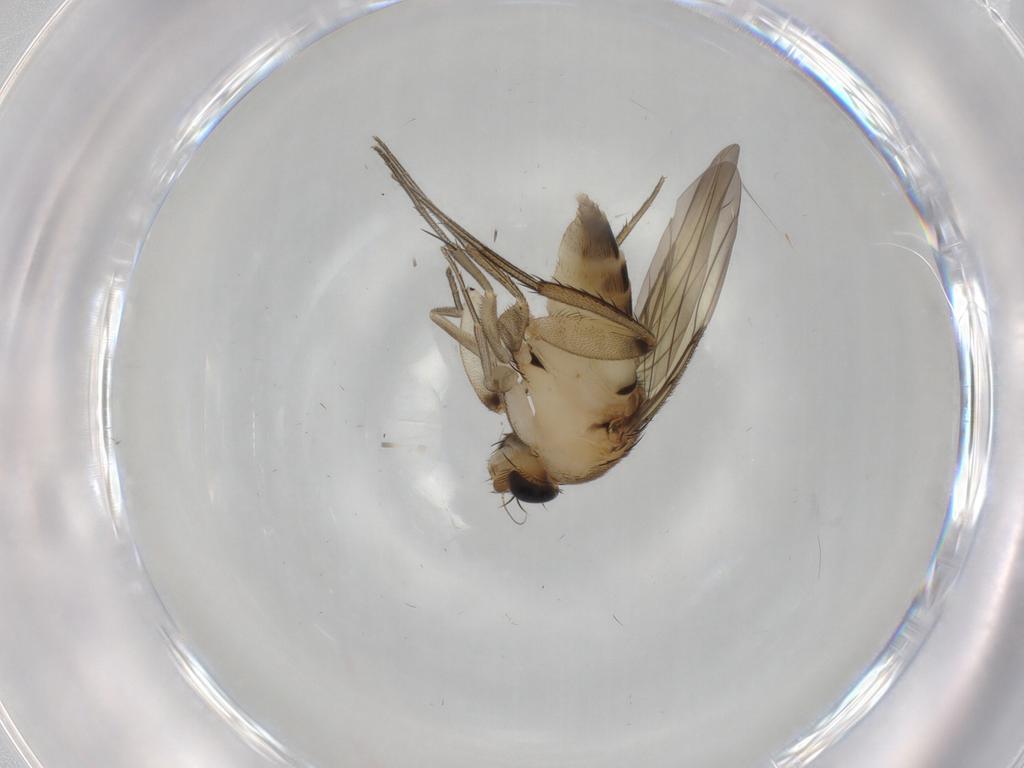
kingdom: Animalia
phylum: Arthropoda
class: Insecta
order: Diptera
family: Phoridae
